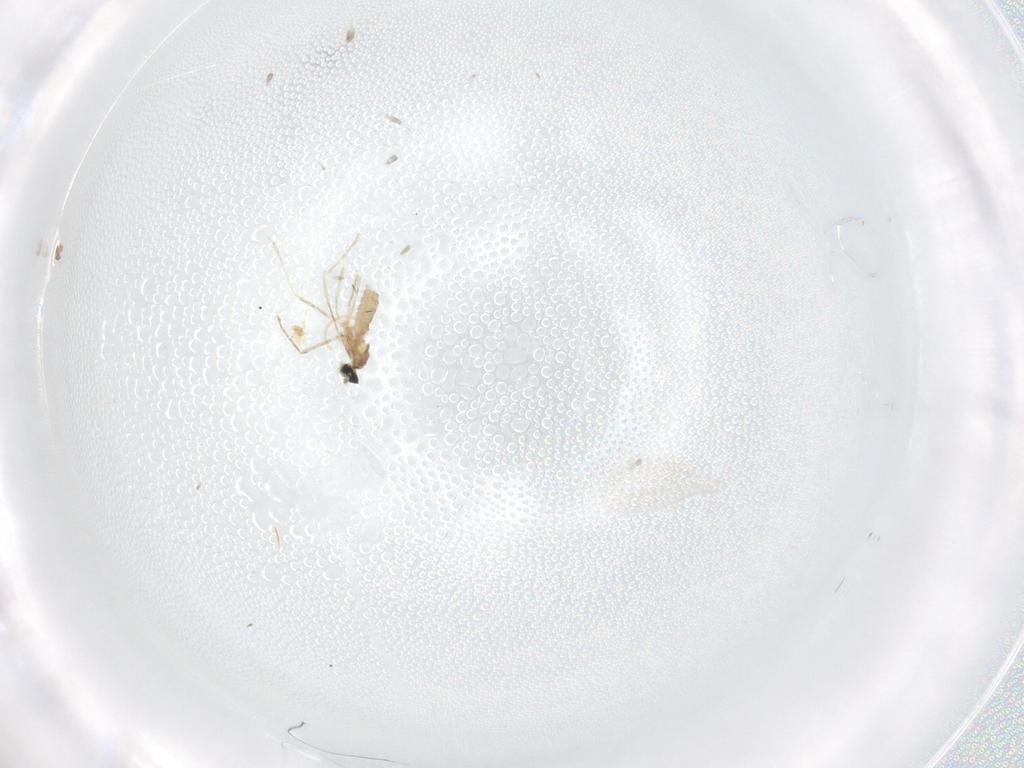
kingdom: Animalia
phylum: Arthropoda
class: Insecta
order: Diptera
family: Cecidomyiidae
